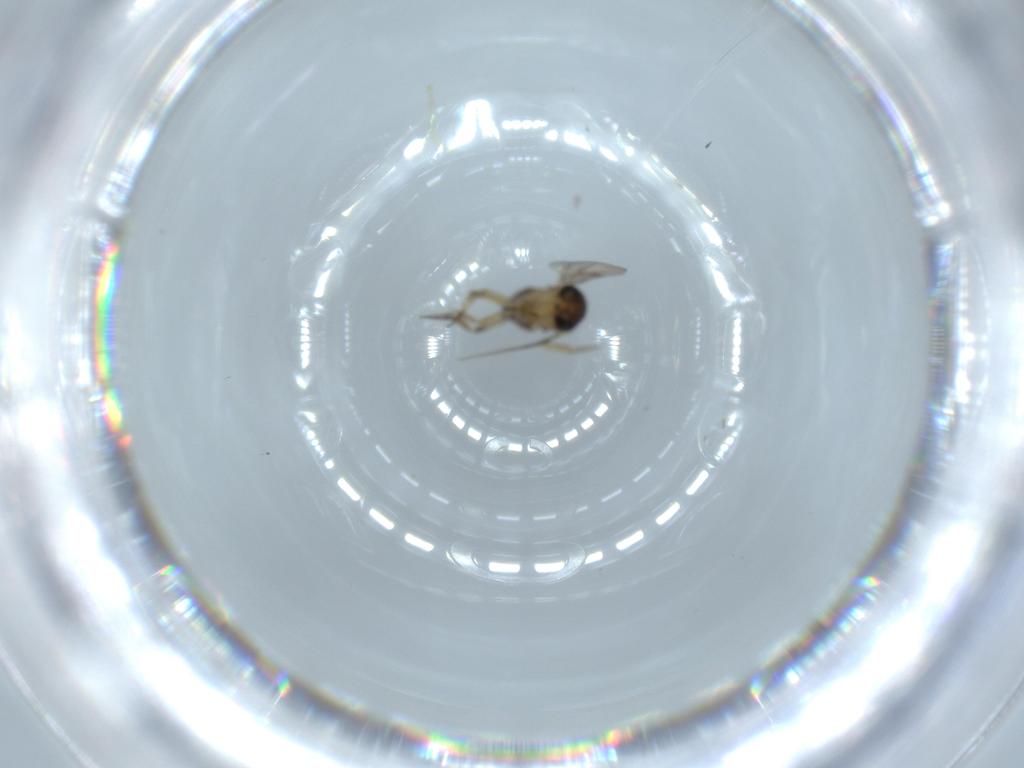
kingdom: Animalia
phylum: Arthropoda
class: Insecta
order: Diptera
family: Phoridae
